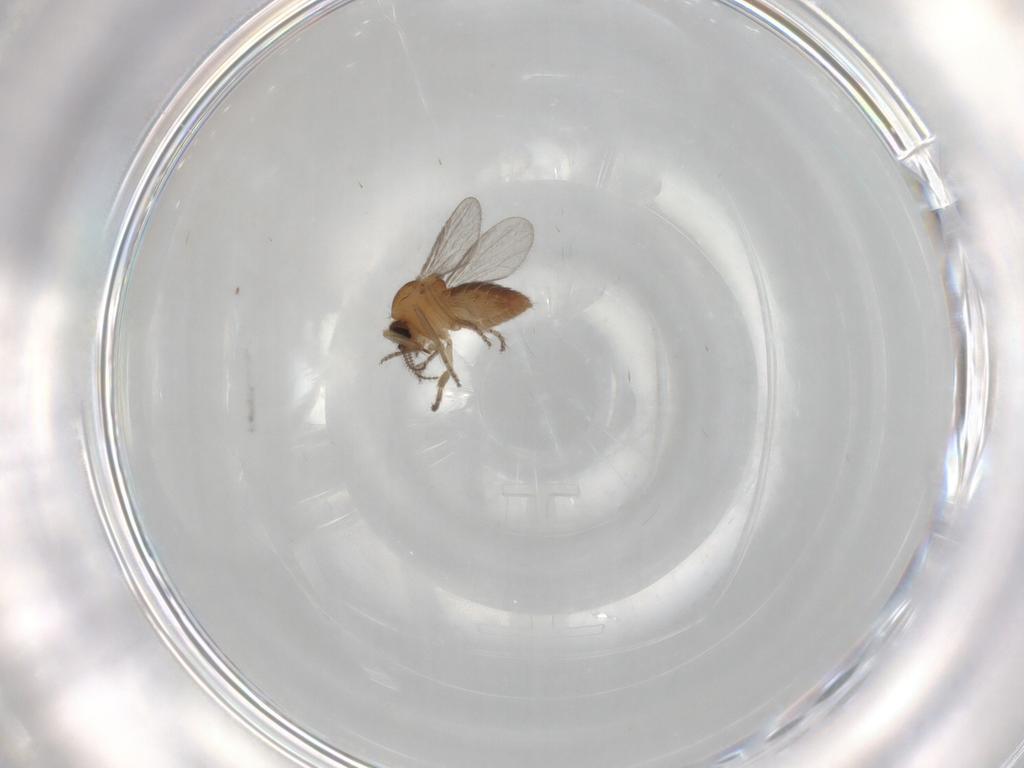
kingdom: Animalia
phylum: Arthropoda
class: Insecta
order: Diptera
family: Ceratopogonidae
